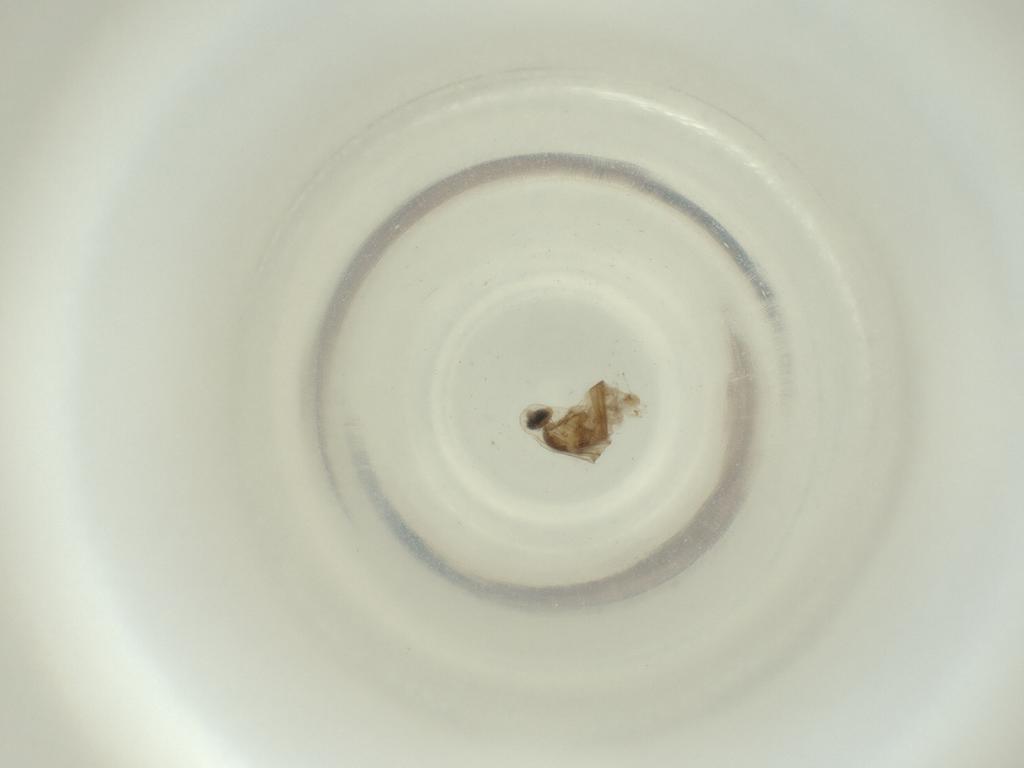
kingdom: Animalia
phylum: Arthropoda
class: Insecta
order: Diptera
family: Cecidomyiidae
